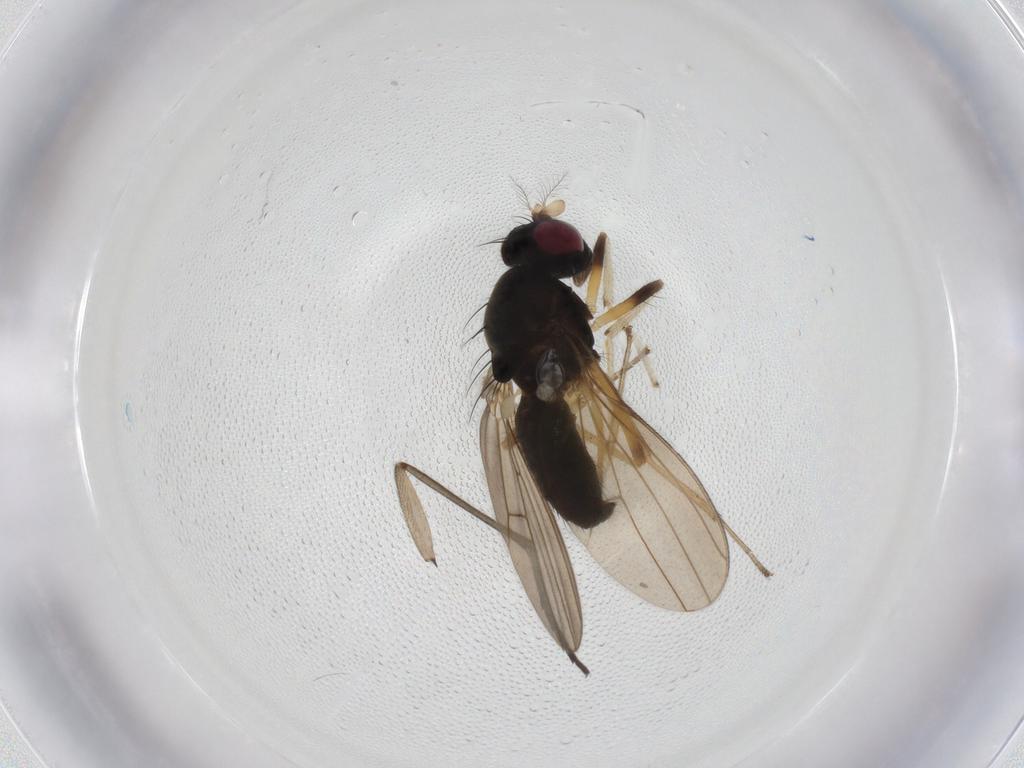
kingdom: Animalia
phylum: Arthropoda
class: Insecta
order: Diptera
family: Sciaridae
